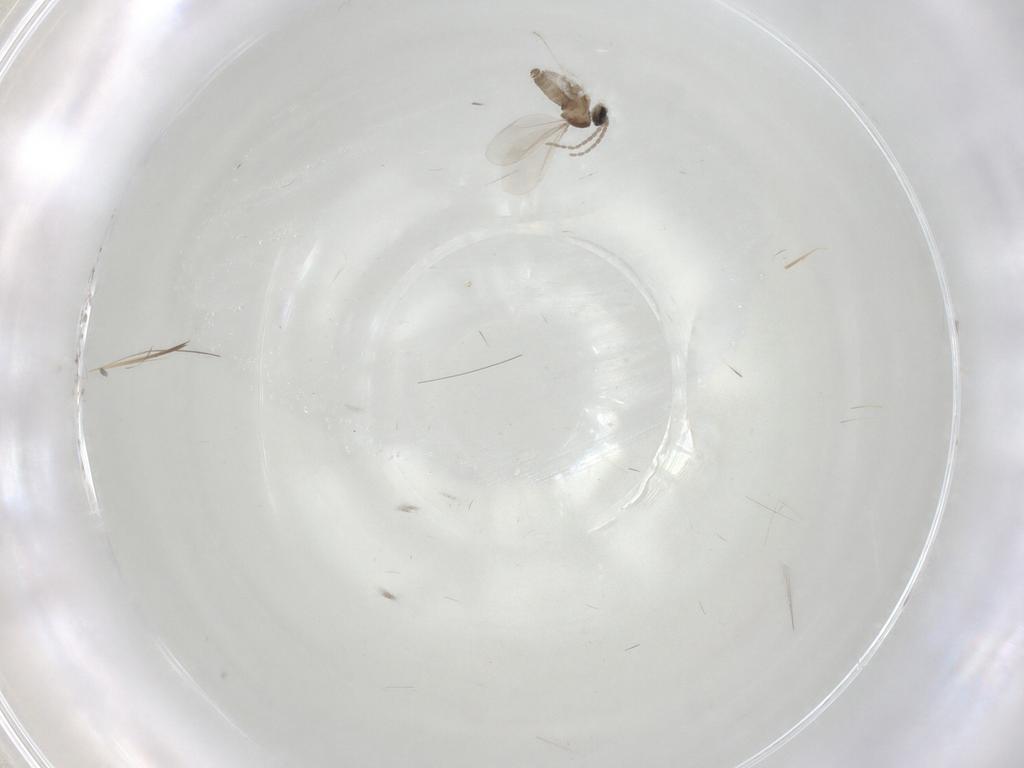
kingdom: Animalia
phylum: Arthropoda
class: Insecta
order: Diptera
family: Cecidomyiidae
